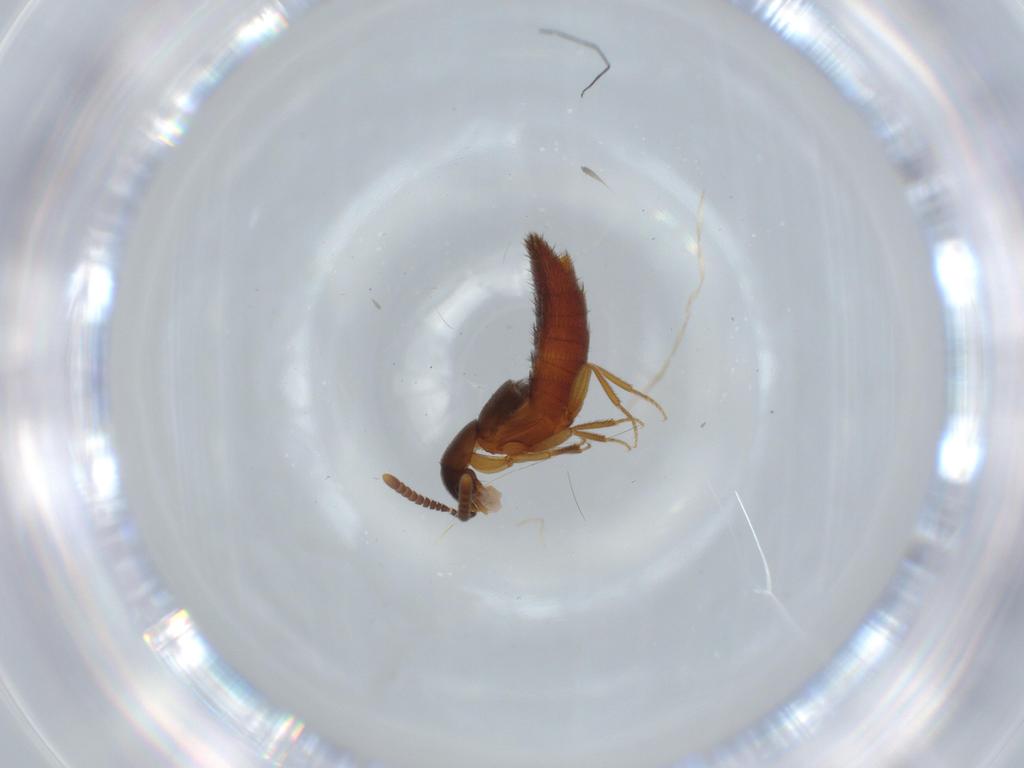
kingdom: Animalia
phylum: Arthropoda
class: Insecta
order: Coleoptera
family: Staphylinidae
